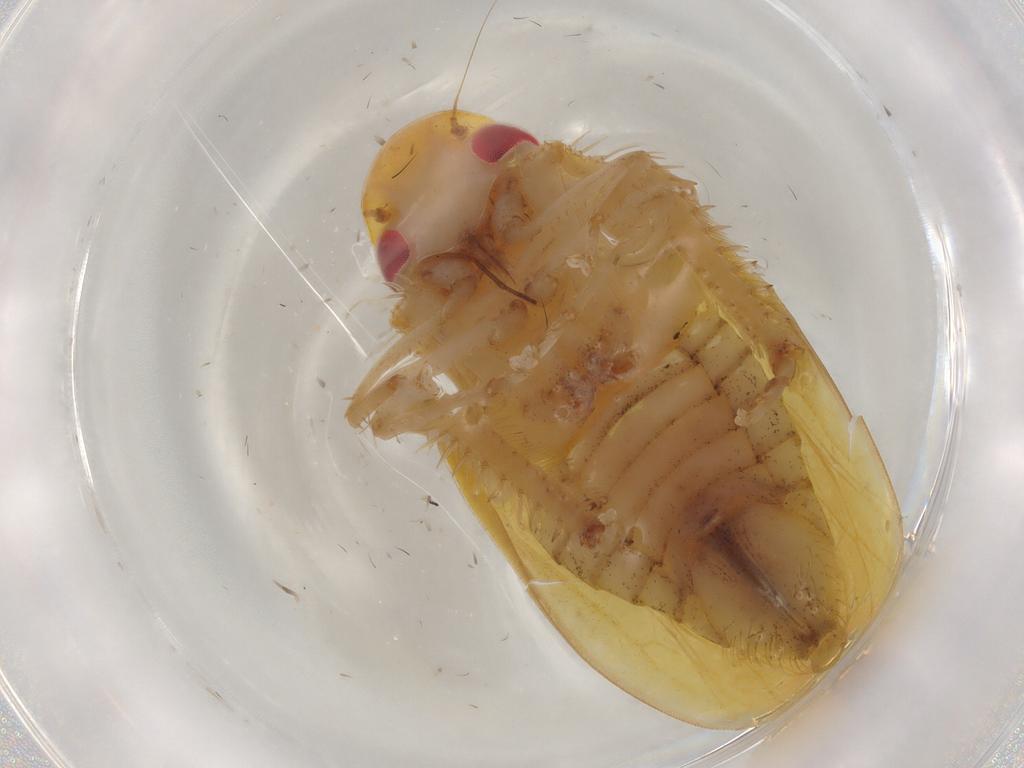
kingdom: Animalia
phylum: Arthropoda
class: Insecta
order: Hemiptera
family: Cicadellidae
